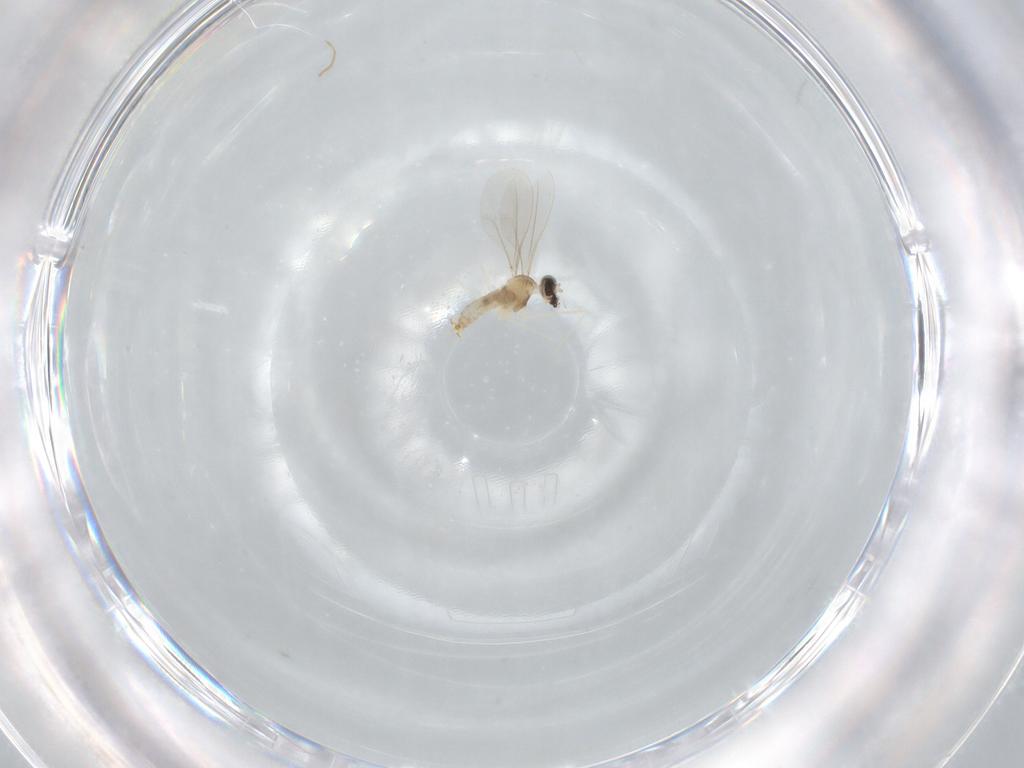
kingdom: Animalia
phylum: Arthropoda
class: Insecta
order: Diptera
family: Cecidomyiidae
